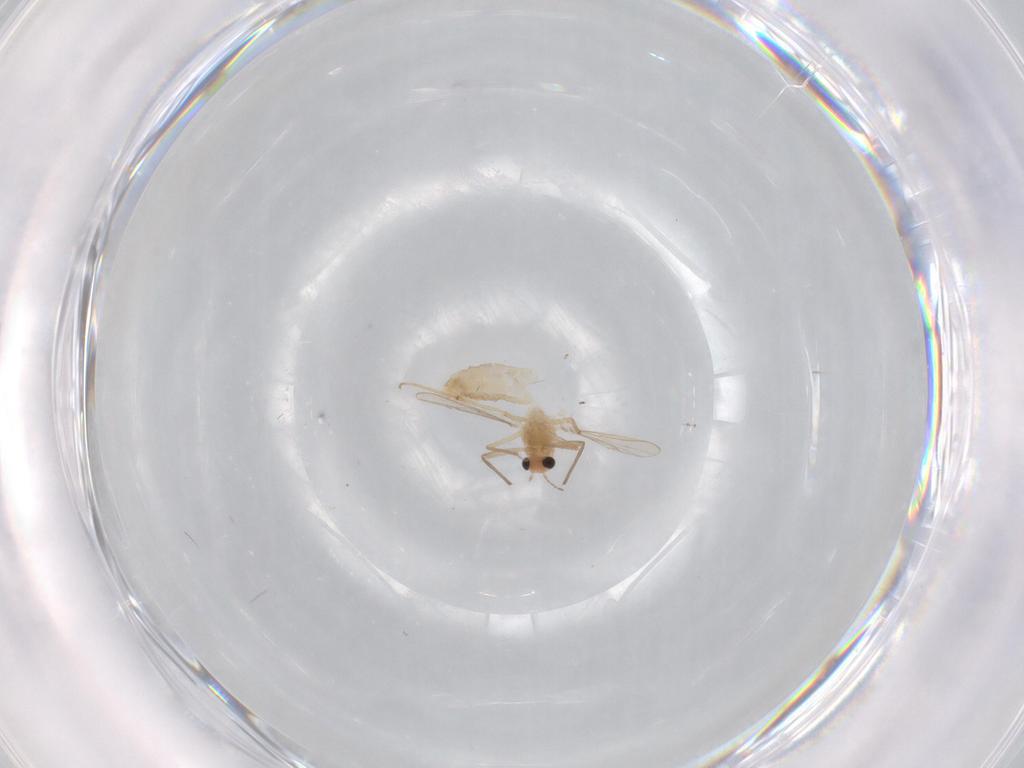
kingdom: Animalia
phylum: Arthropoda
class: Insecta
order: Diptera
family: Chironomidae
